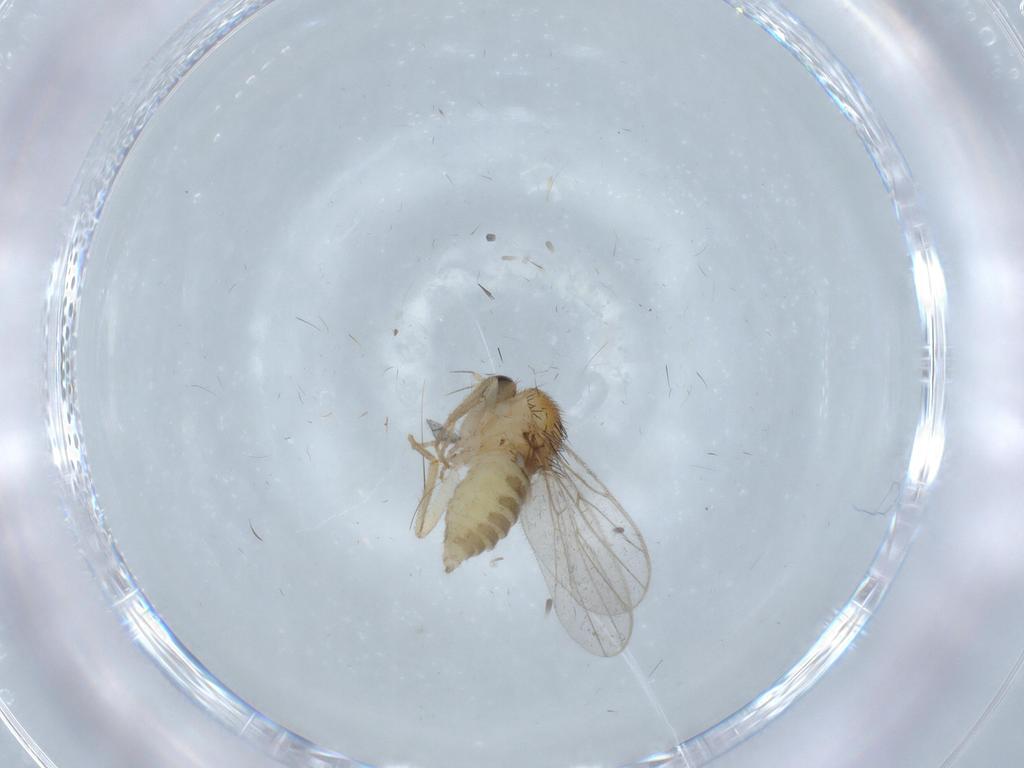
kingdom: Animalia
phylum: Arthropoda
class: Insecta
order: Diptera
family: Hybotidae
